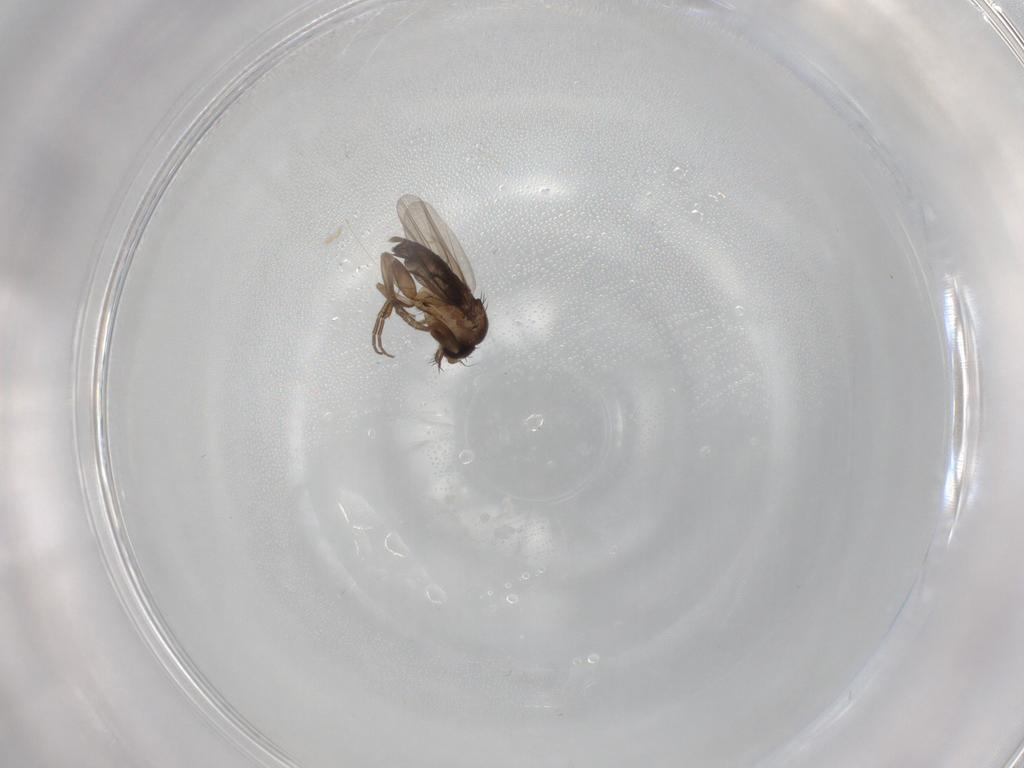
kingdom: Animalia
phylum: Arthropoda
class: Insecta
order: Diptera
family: Phoridae
